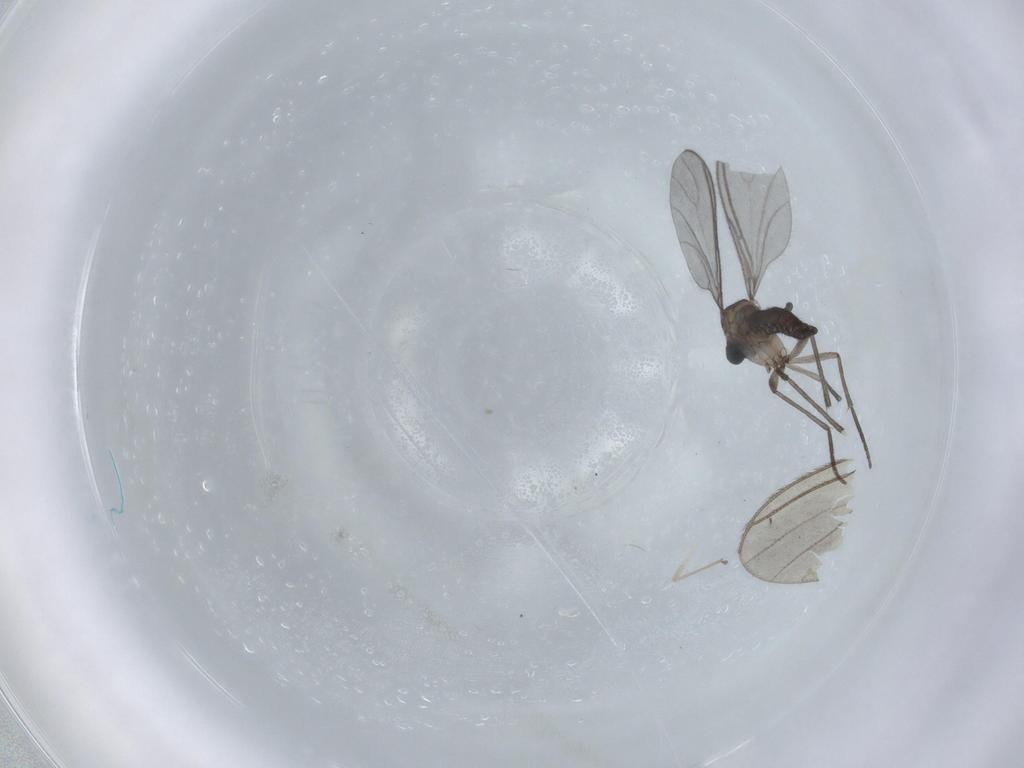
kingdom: Animalia
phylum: Arthropoda
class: Insecta
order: Diptera
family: Sciaridae
